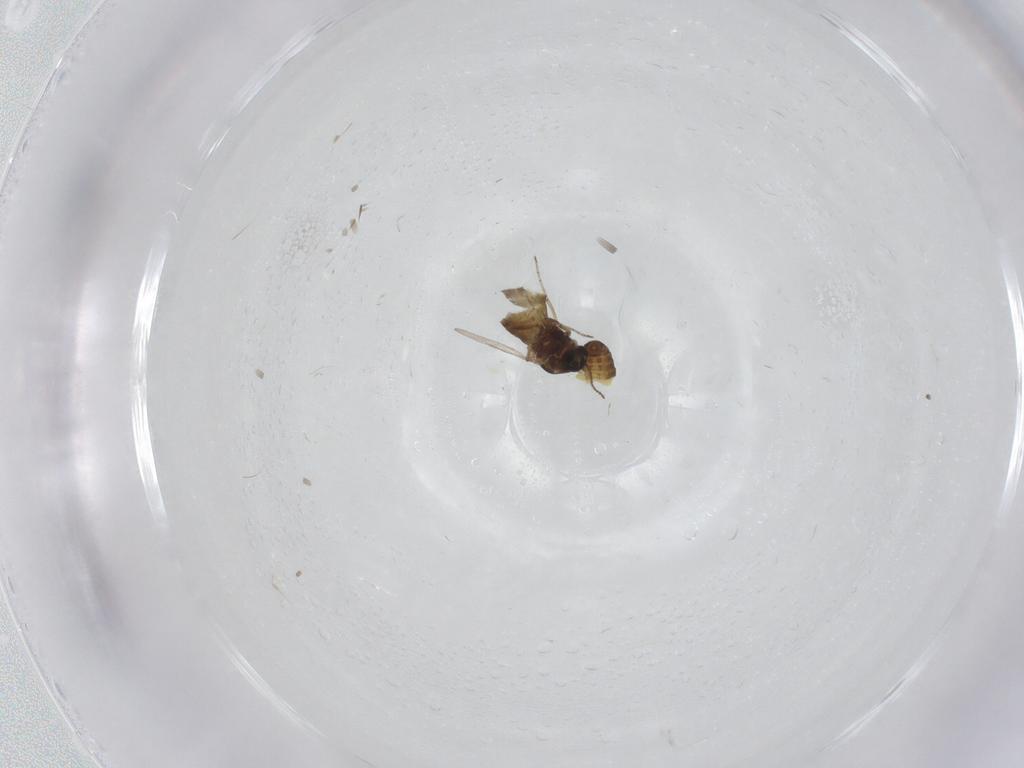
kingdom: Animalia
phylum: Arthropoda
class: Insecta
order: Diptera
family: Ceratopogonidae
